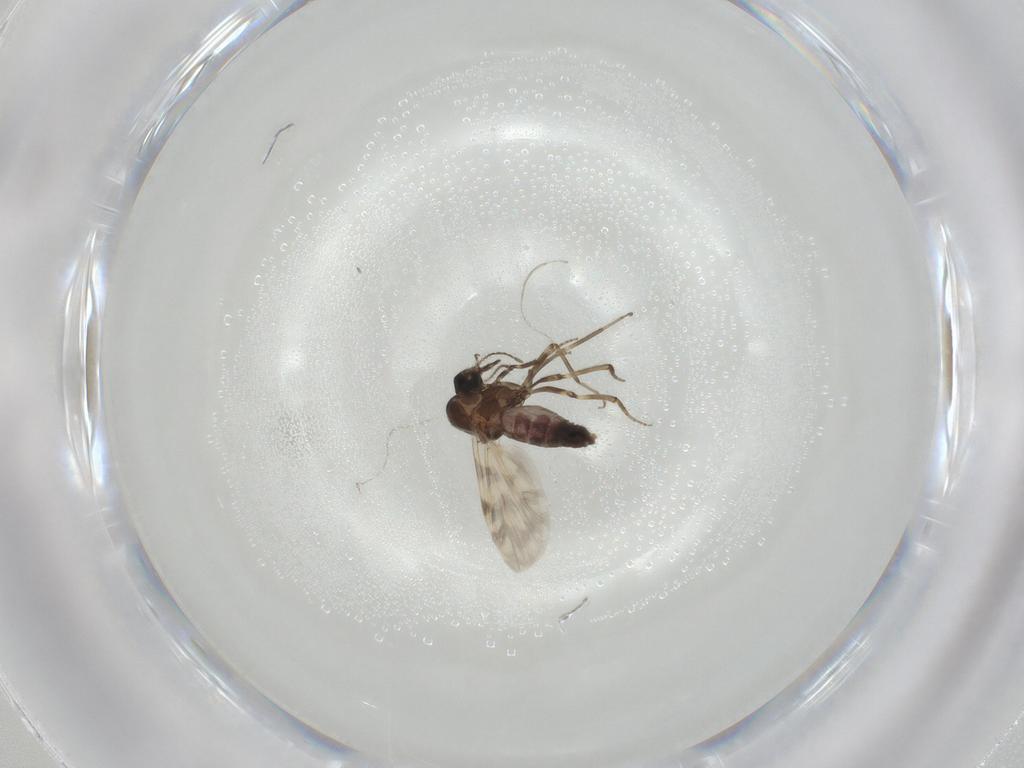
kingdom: Animalia
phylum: Arthropoda
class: Insecta
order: Diptera
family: Ceratopogonidae
